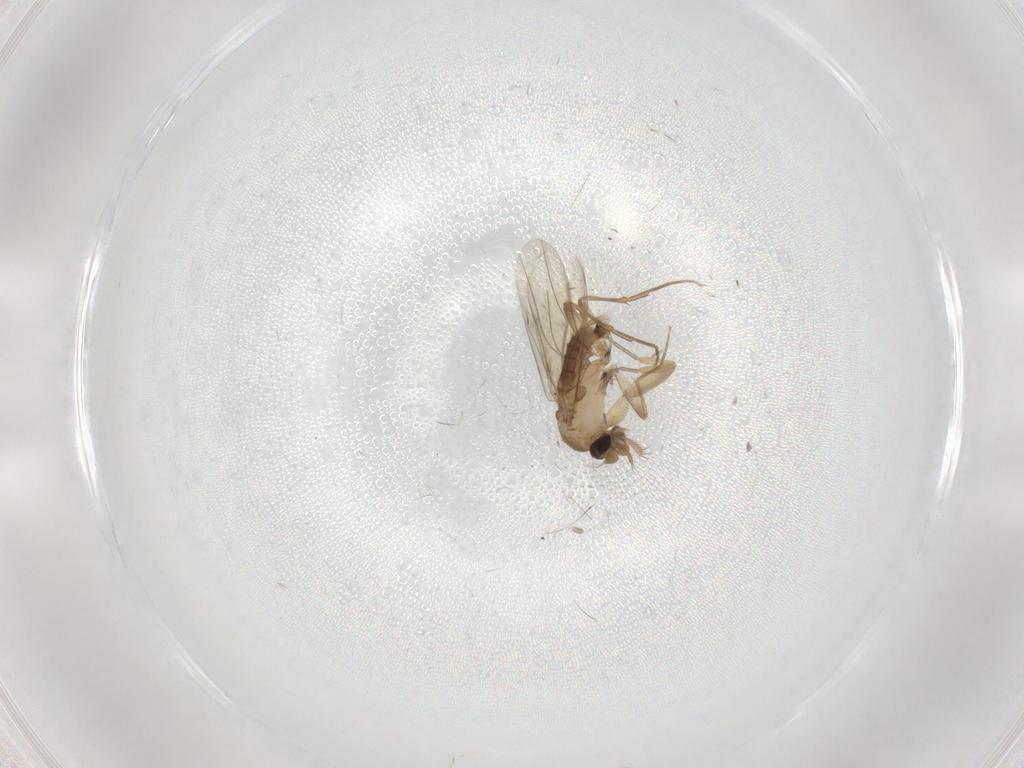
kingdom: Animalia
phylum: Arthropoda
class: Insecta
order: Diptera
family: Phoridae
